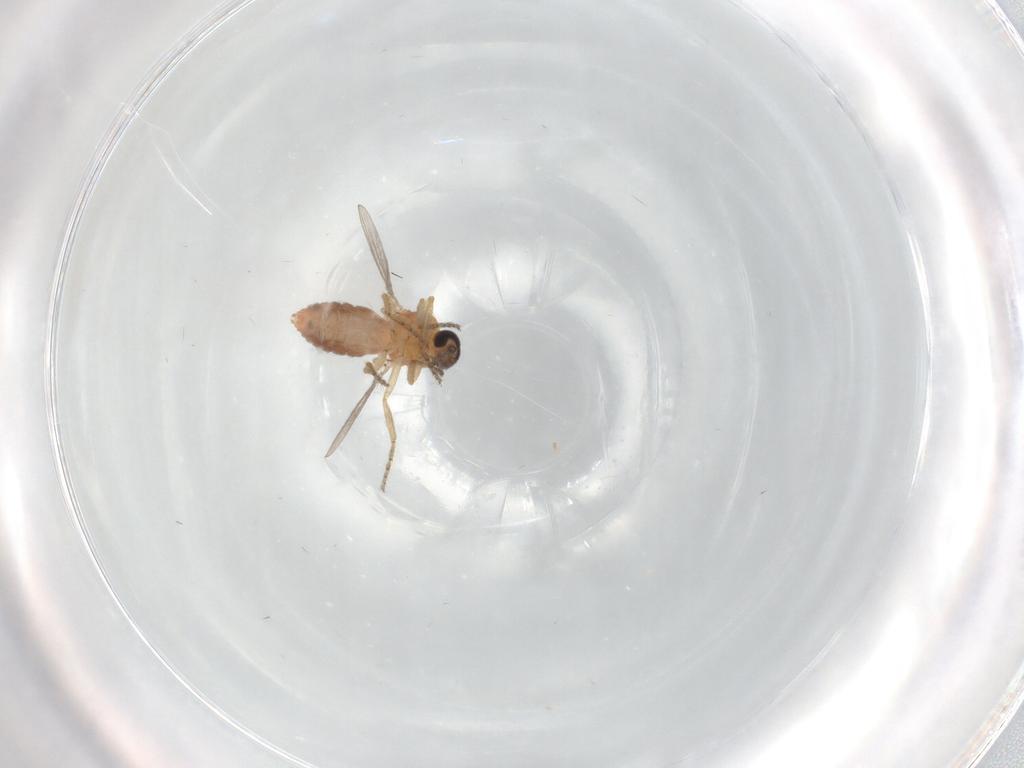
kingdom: Animalia
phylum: Arthropoda
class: Insecta
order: Diptera
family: Ceratopogonidae
